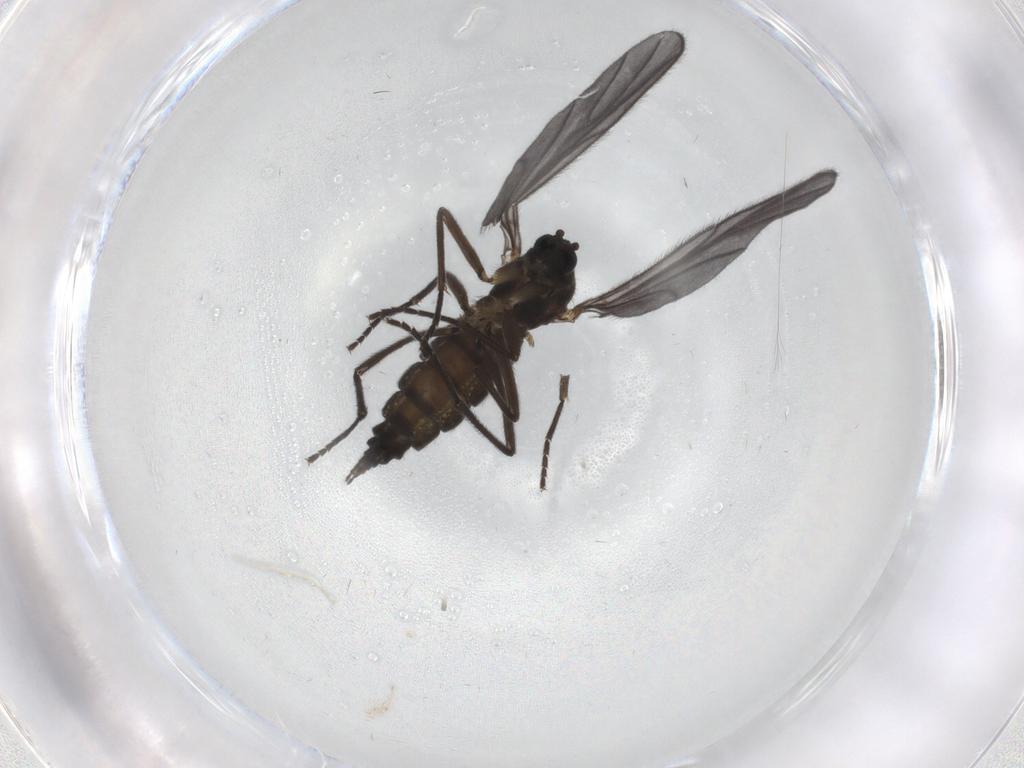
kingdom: Animalia
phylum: Arthropoda
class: Insecta
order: Diptera
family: Sciaridae
